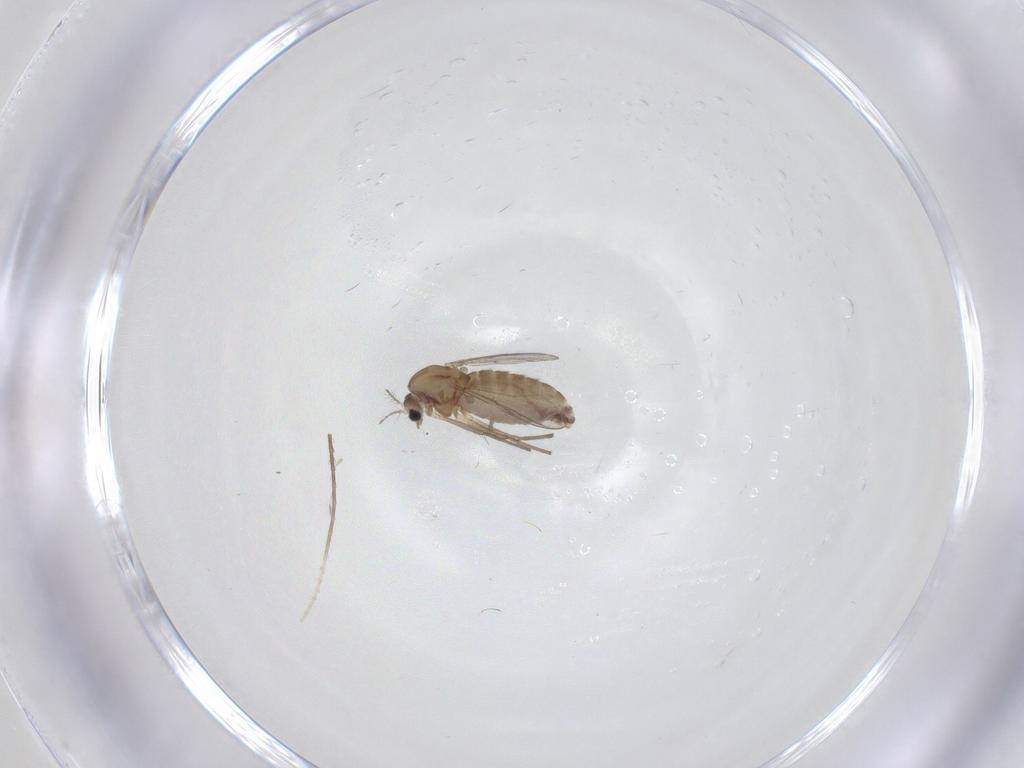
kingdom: Animalia
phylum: Arthropoda
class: Insecta
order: Diptera
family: Chironomidae
